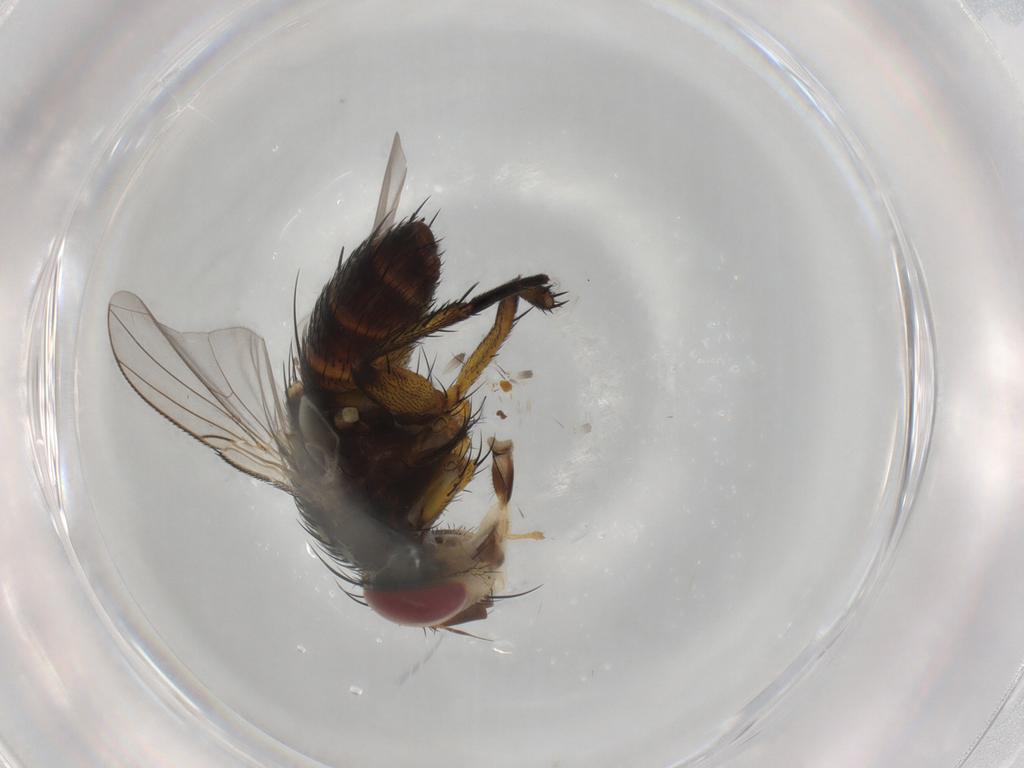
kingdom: Animalia
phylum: Arthropoda
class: Insecta
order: Diptera
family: Tachinidae
